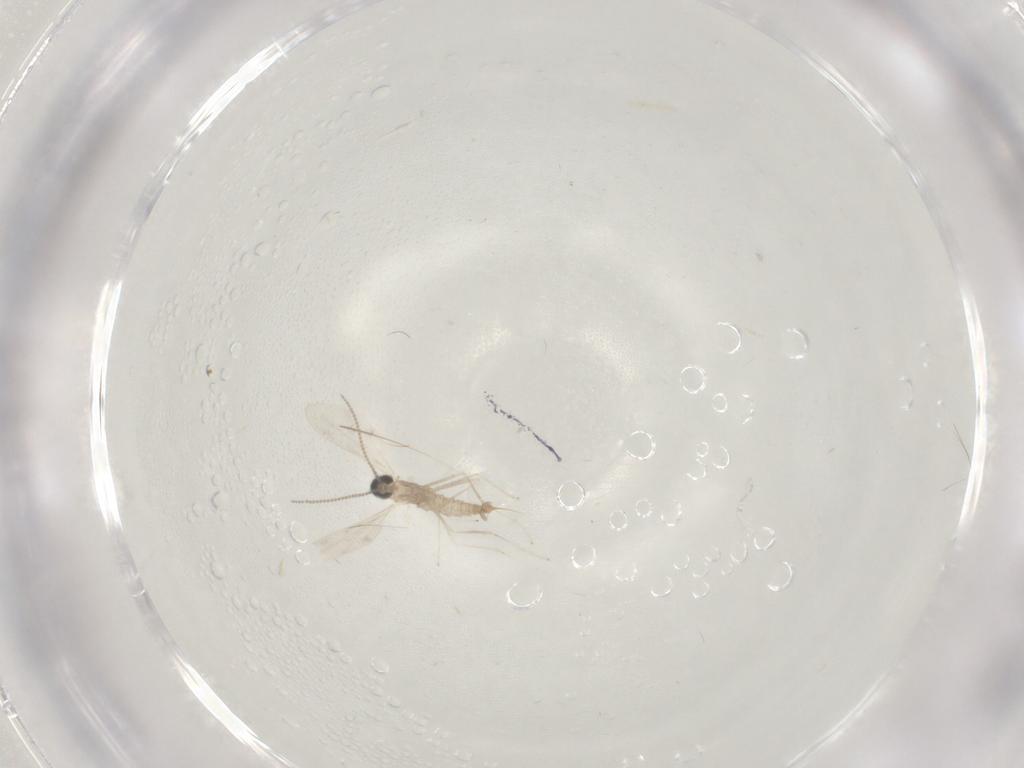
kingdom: Animalia
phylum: Arthropoda
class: Insecta
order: Diptera
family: Cecidomyiidae
